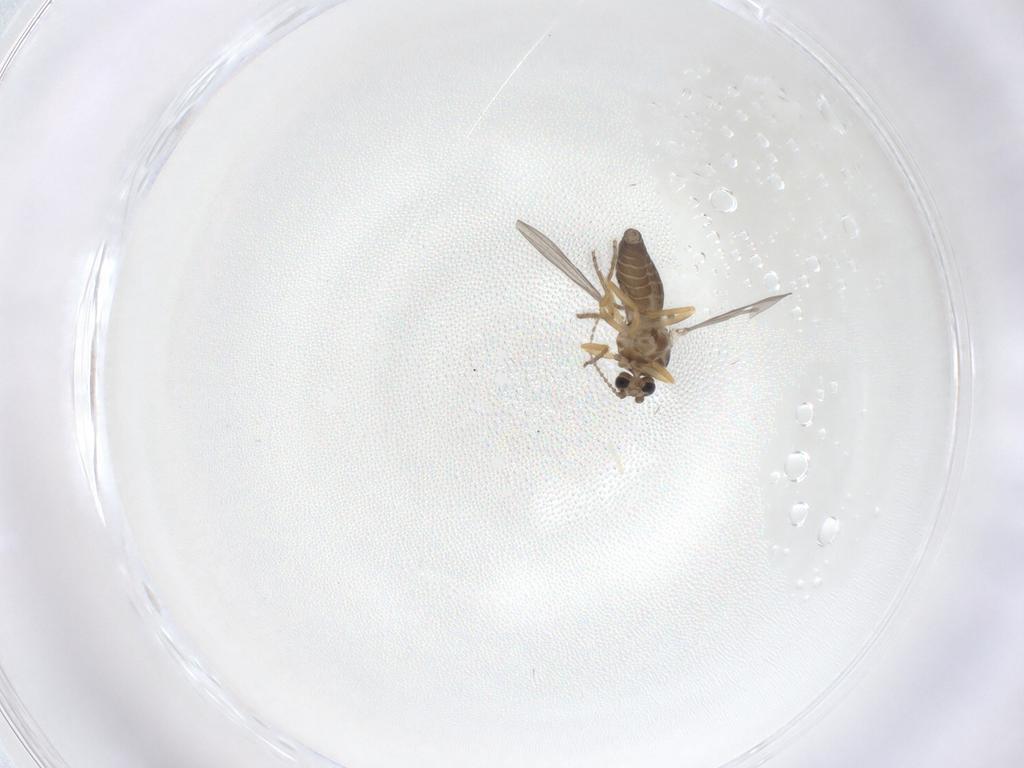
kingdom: Animalia
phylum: Arthropoda
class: Insecta
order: Diptera
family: Ceratopogonidae
